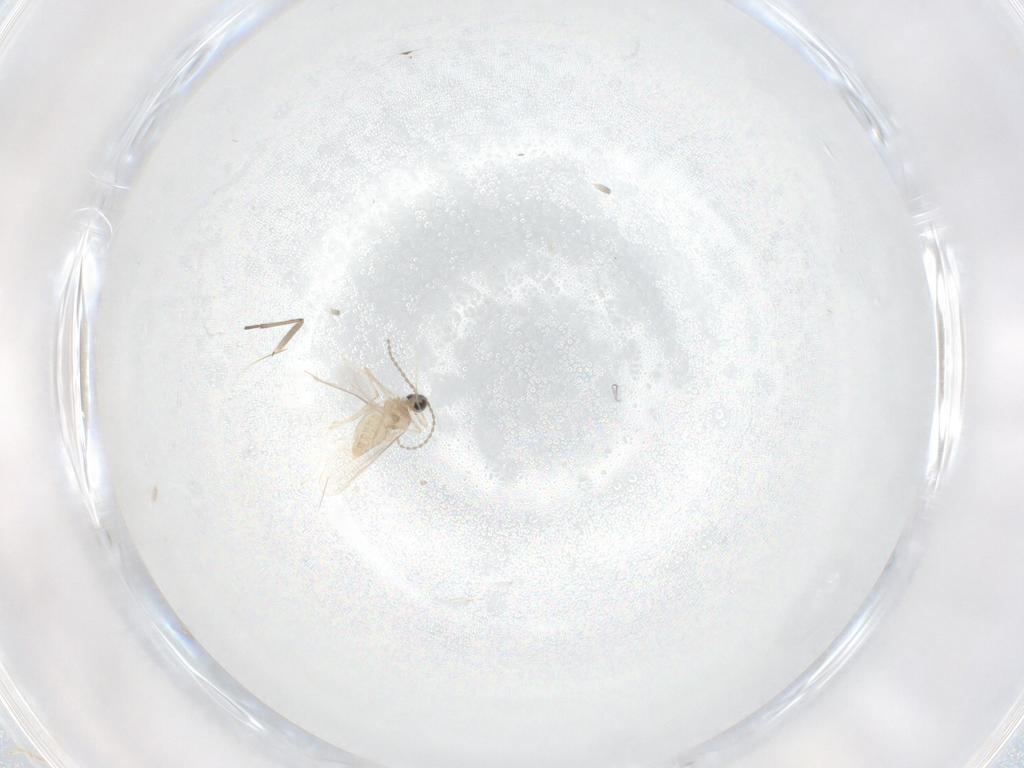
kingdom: Animalia
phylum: Arthropoda
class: Insecta
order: Diptera
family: Cecidomyiidae
